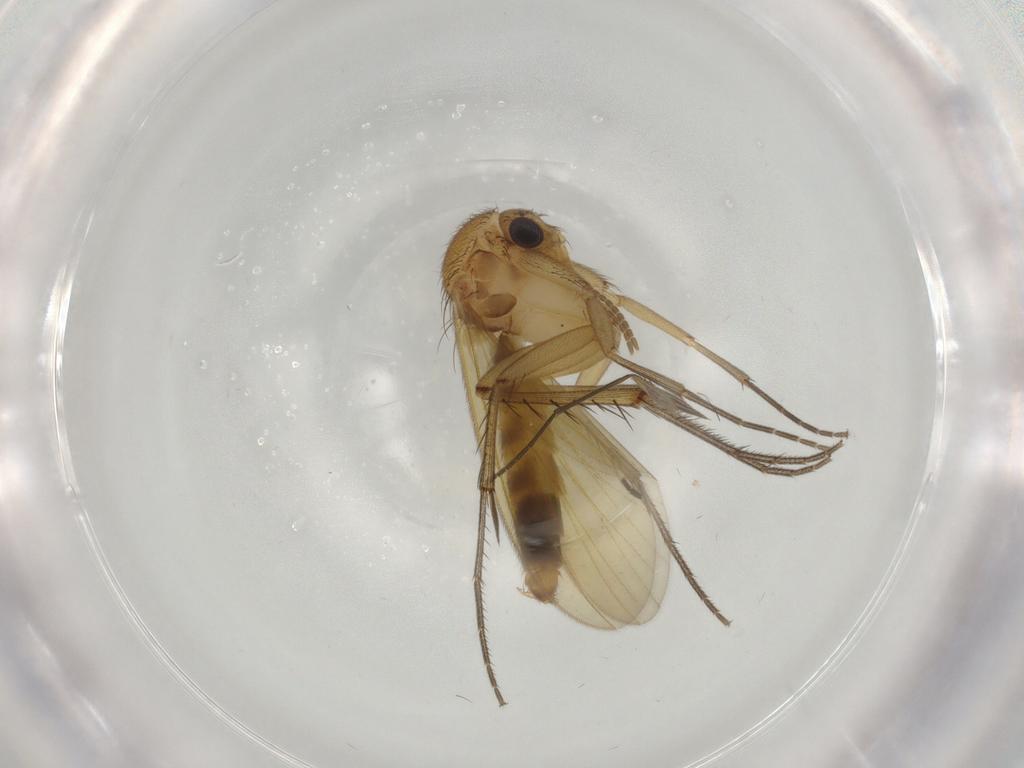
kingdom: Animalia
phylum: Arthropoda
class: Insecta
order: Diptera
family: Mycetophilidae
